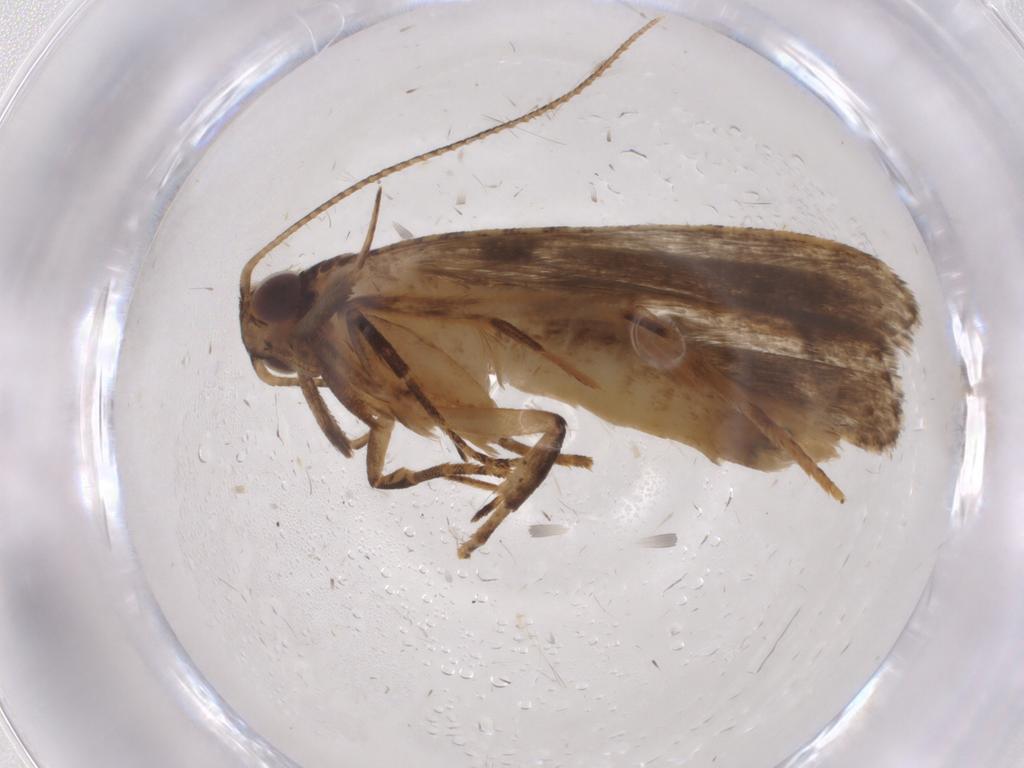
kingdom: Animalia
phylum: Arthropoda
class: Insecta
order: Lepidoptera
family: Gelechiidae
